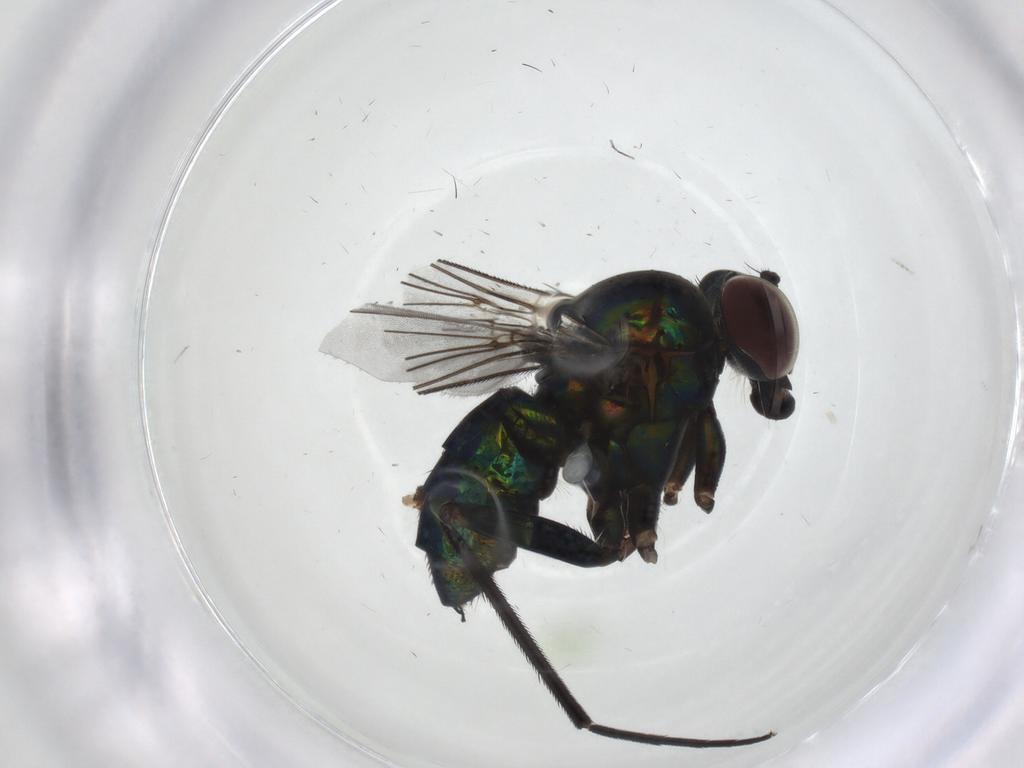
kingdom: Animalia
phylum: Arthropoda
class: Insecta
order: Diptera
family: Dolichopodidae
